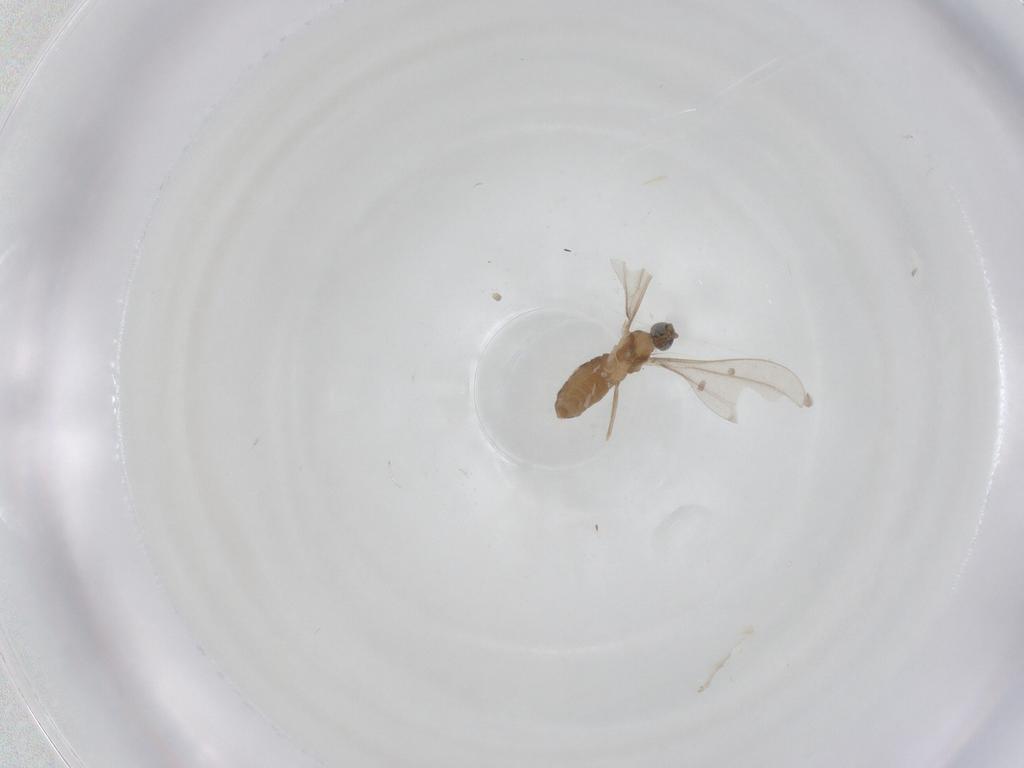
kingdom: Animalia
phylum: Arthropoda
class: Insecta
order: Diptera
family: Cecidomyiidae
